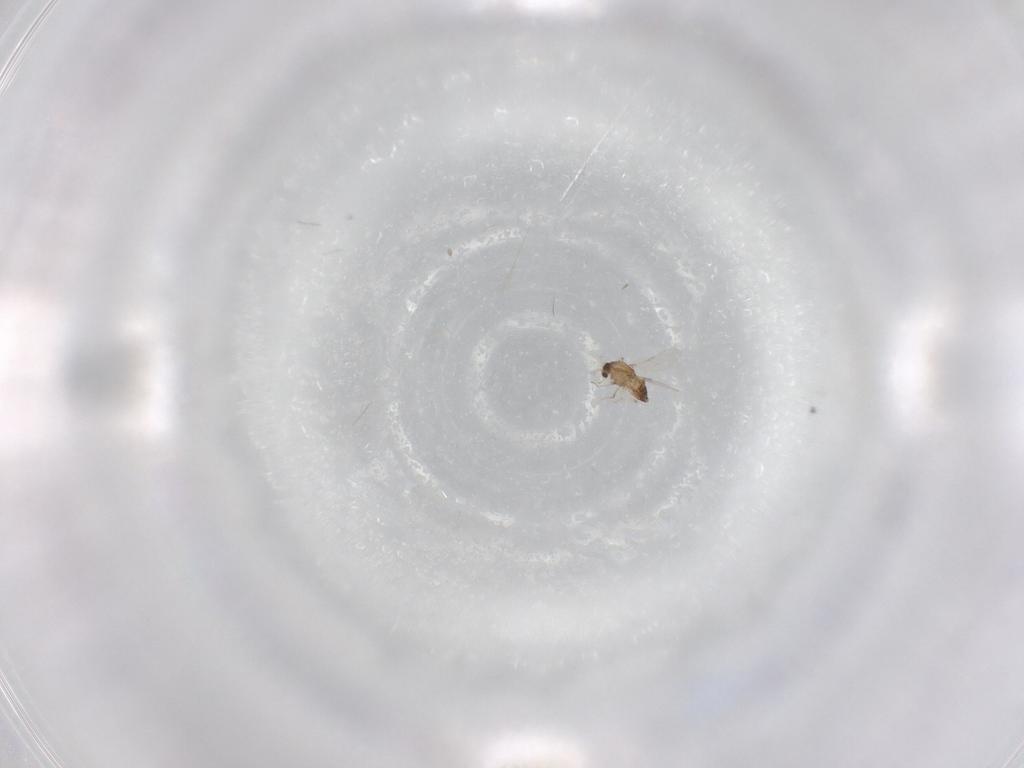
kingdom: Animalia
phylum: Arthropoda
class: Insecta
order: Diptera
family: Chironomidae
